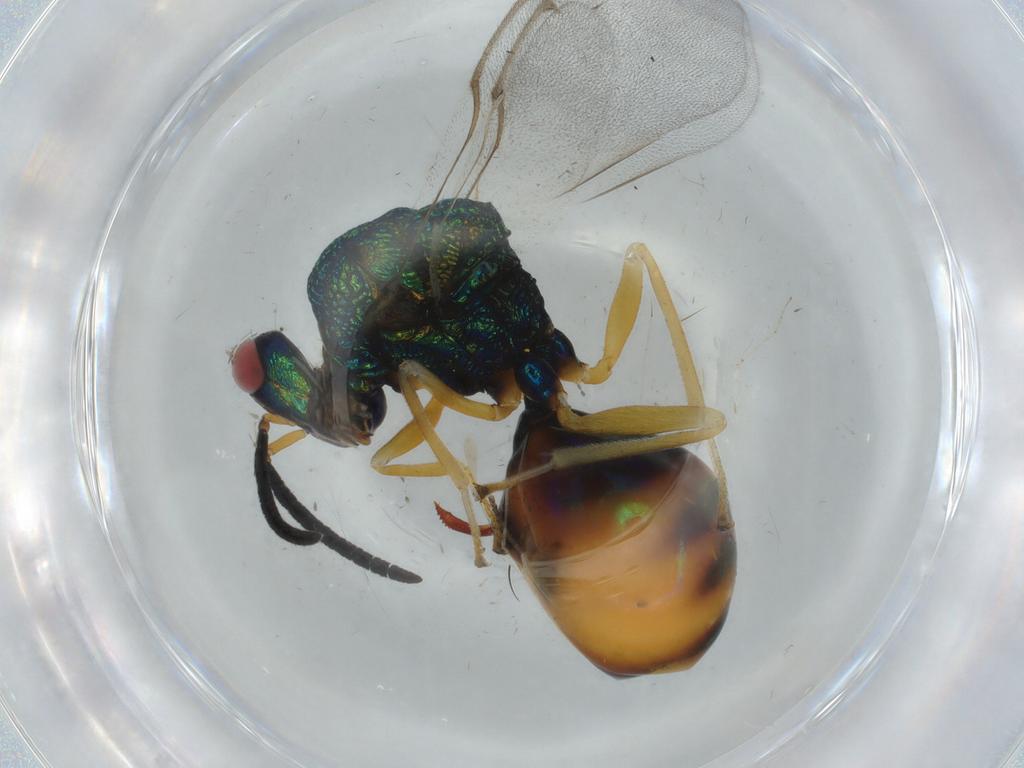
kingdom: Animalia
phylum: Arthropoda
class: Insecta
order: Hymenoptera
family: Eucharitidae
